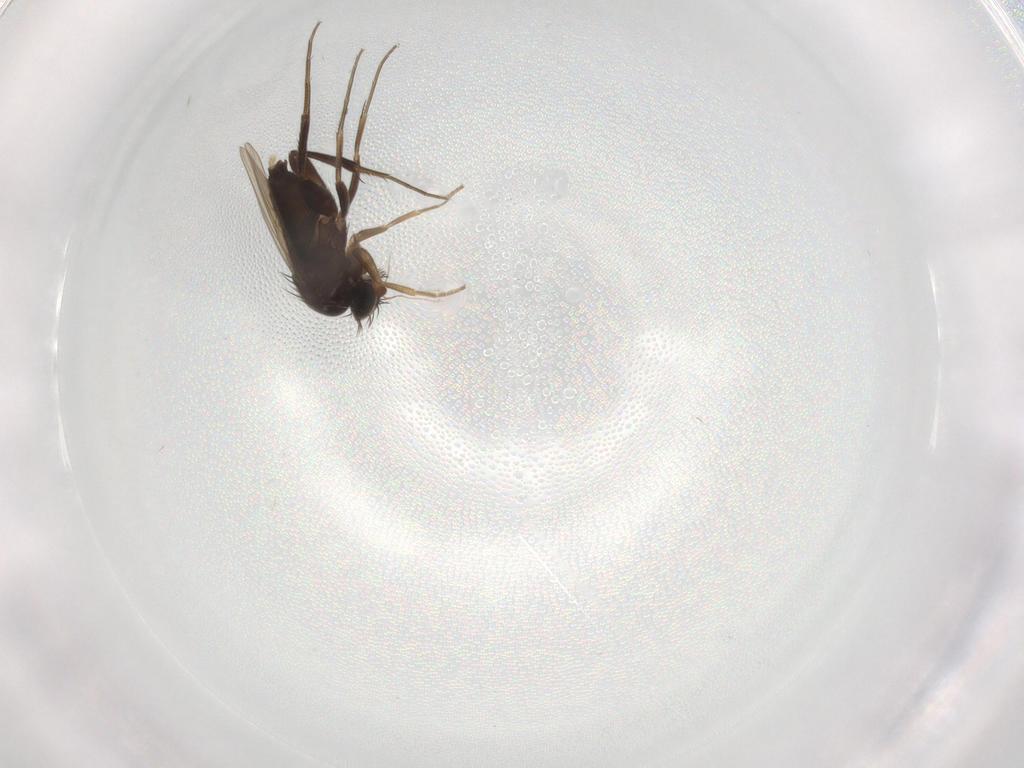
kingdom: Animalia
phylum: Arthropoda
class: Insecta
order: Diptera
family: Phoridae
